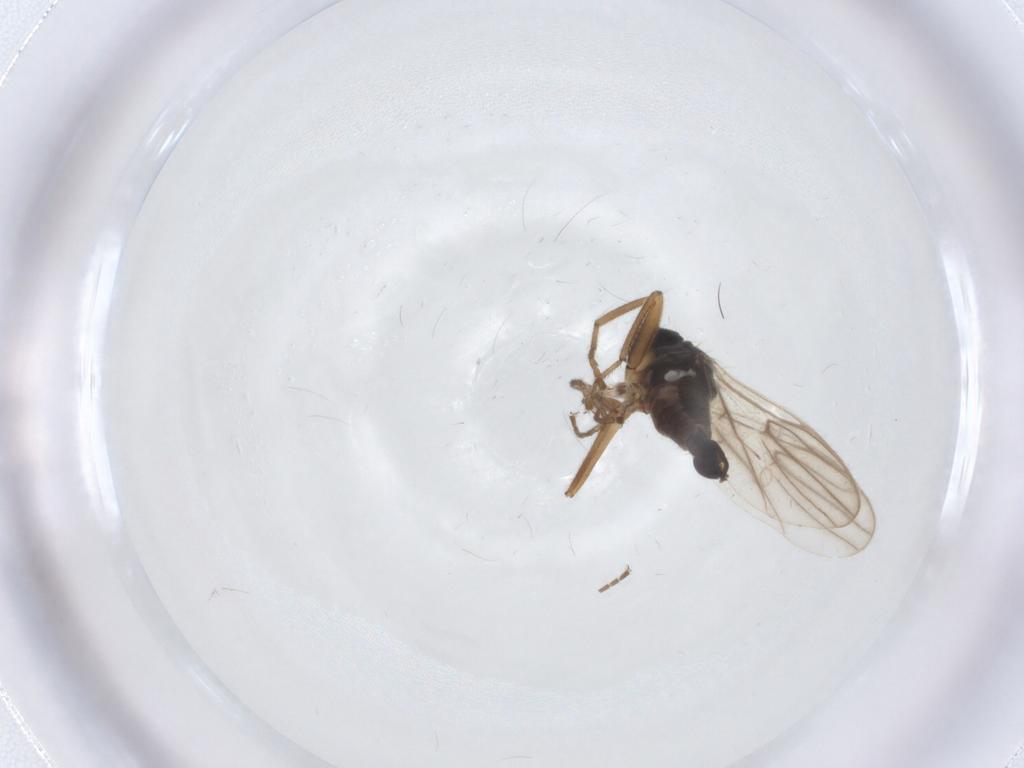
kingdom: Animalia
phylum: Arthropoda
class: Insecta
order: Diptera
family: Hybotidae
